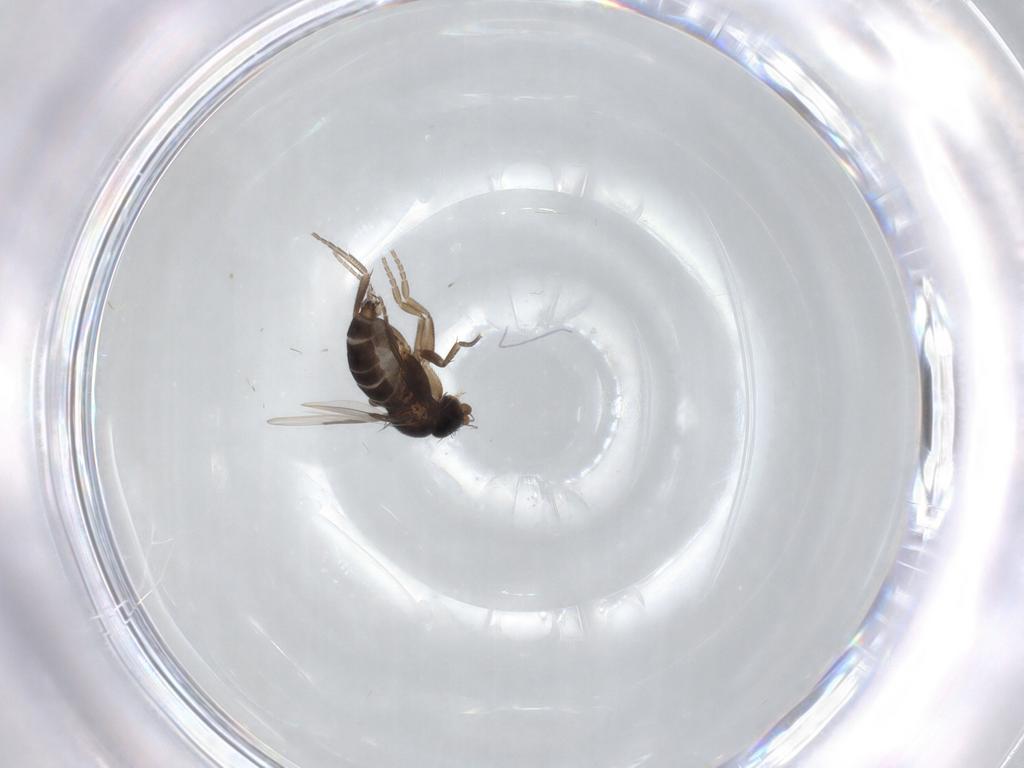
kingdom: Animalia
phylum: Arthropoda
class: Insecta
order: Diptera
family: Phoridae
